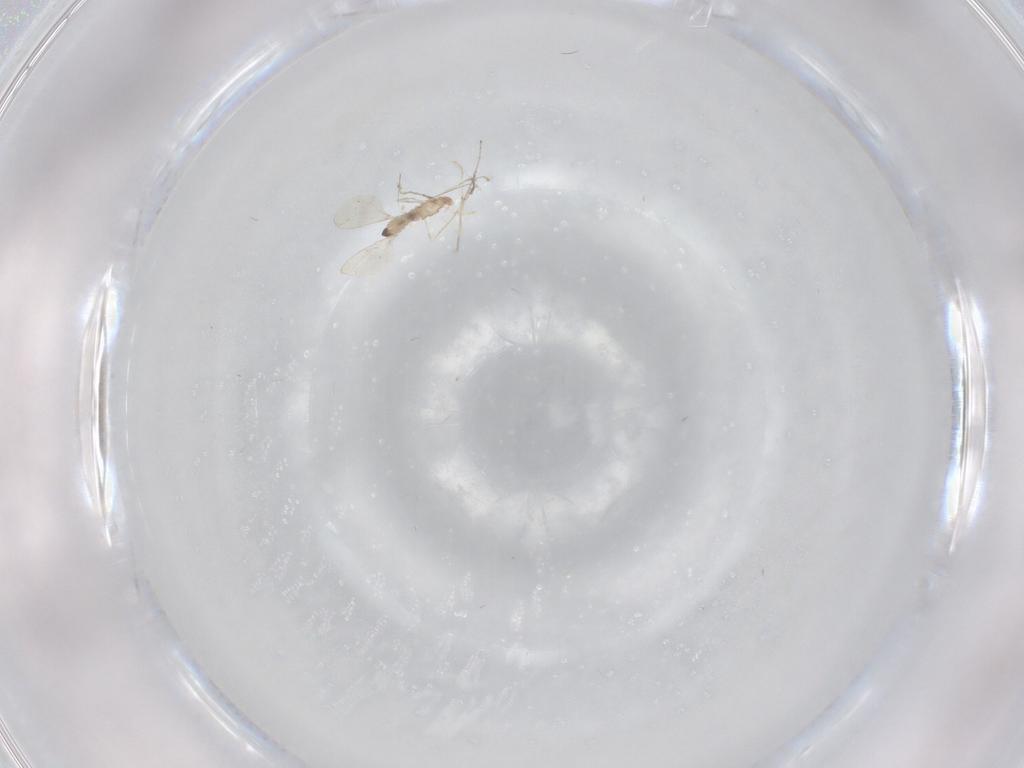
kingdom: Animalia
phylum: Arthropoda
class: Insecta
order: Diptera
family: Cecidomyiidae
